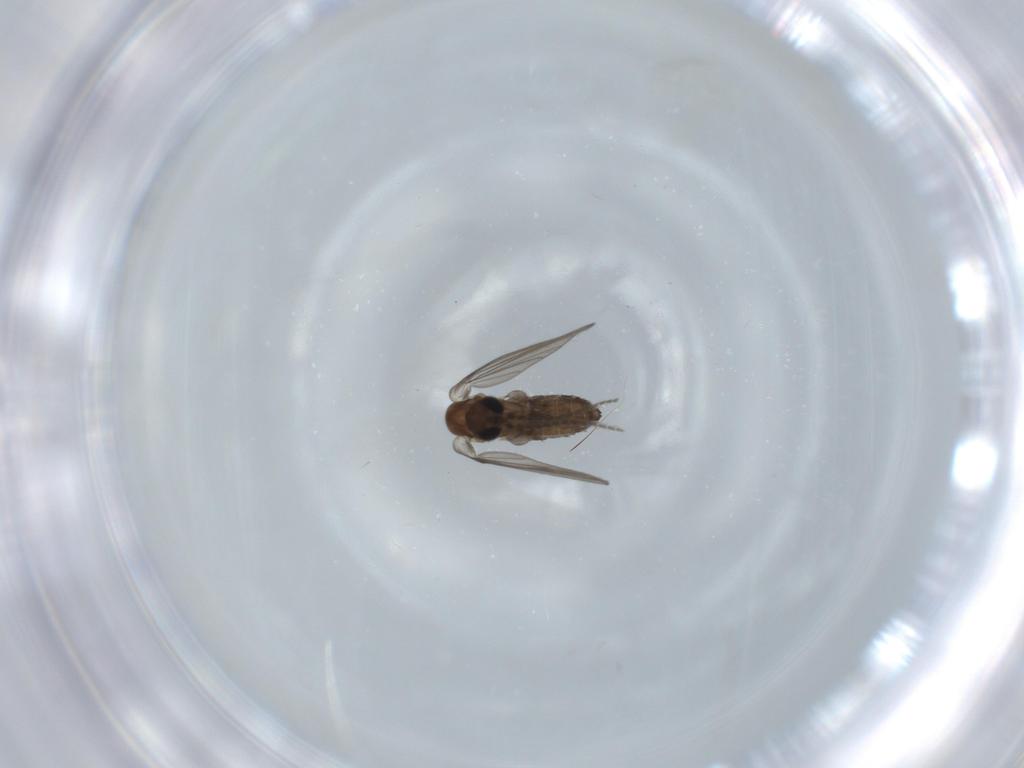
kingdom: Animalia
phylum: Arthropoda
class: Insecta
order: Diptera
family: Psychodidae
